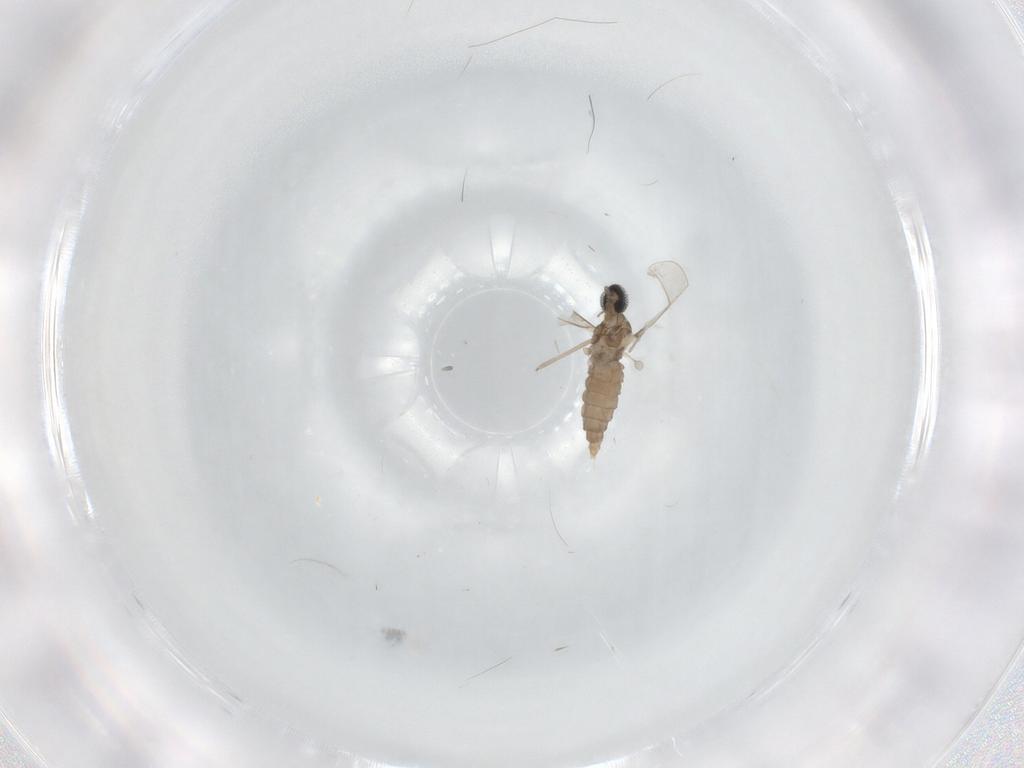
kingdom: Animalia
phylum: Arthropoda
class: Insecta
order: Diptera
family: Cecidomyiidae
